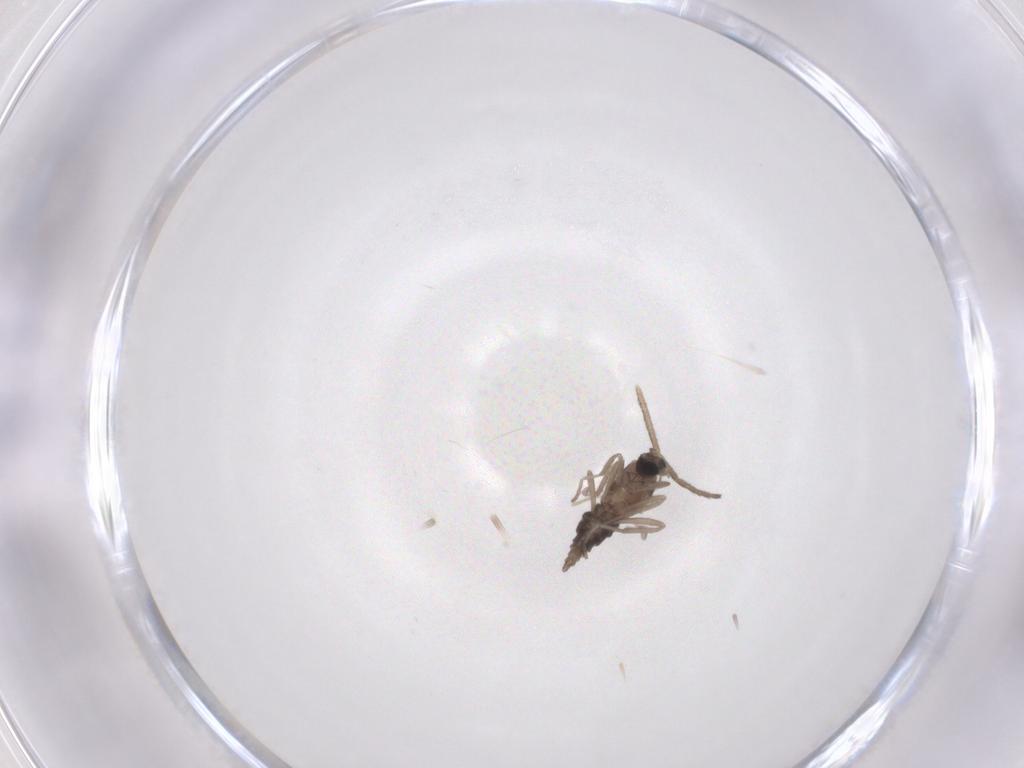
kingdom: Animalia
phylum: Arthropoda
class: Insecta
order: Diptera
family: Cecidomyiidae
